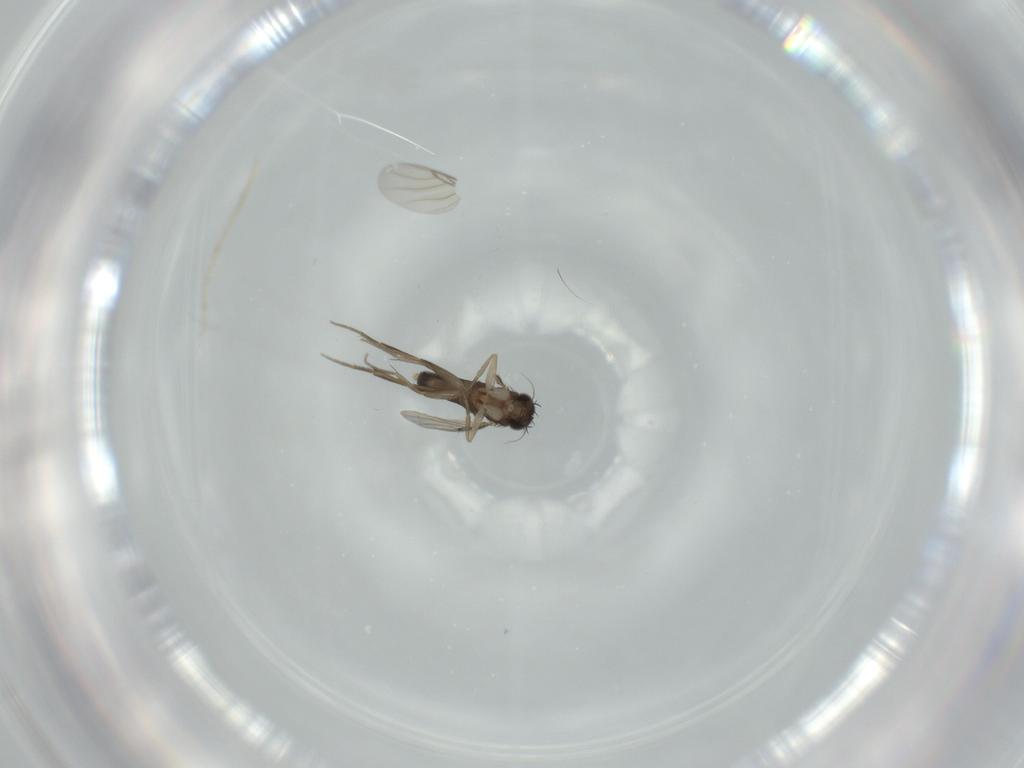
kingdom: Animalia
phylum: Arthropoda
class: Insecta
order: Diptera
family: Phoridae
